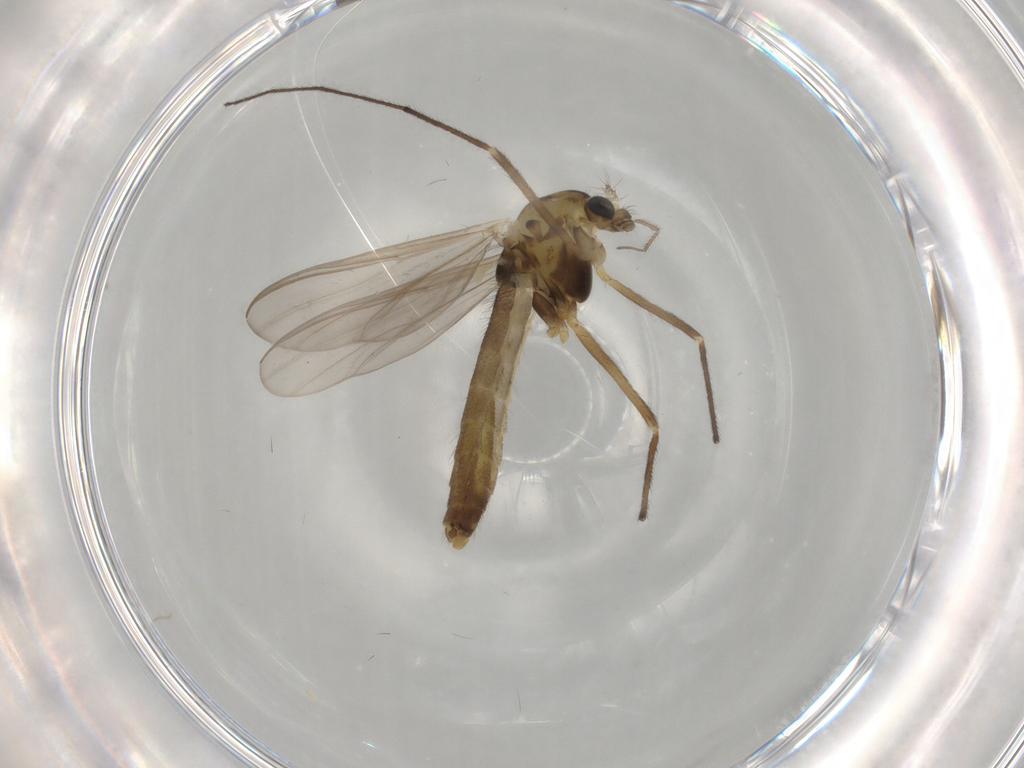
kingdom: Animalia
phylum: Arthropoda
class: Insecta
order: Diptera
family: Chironomidae
